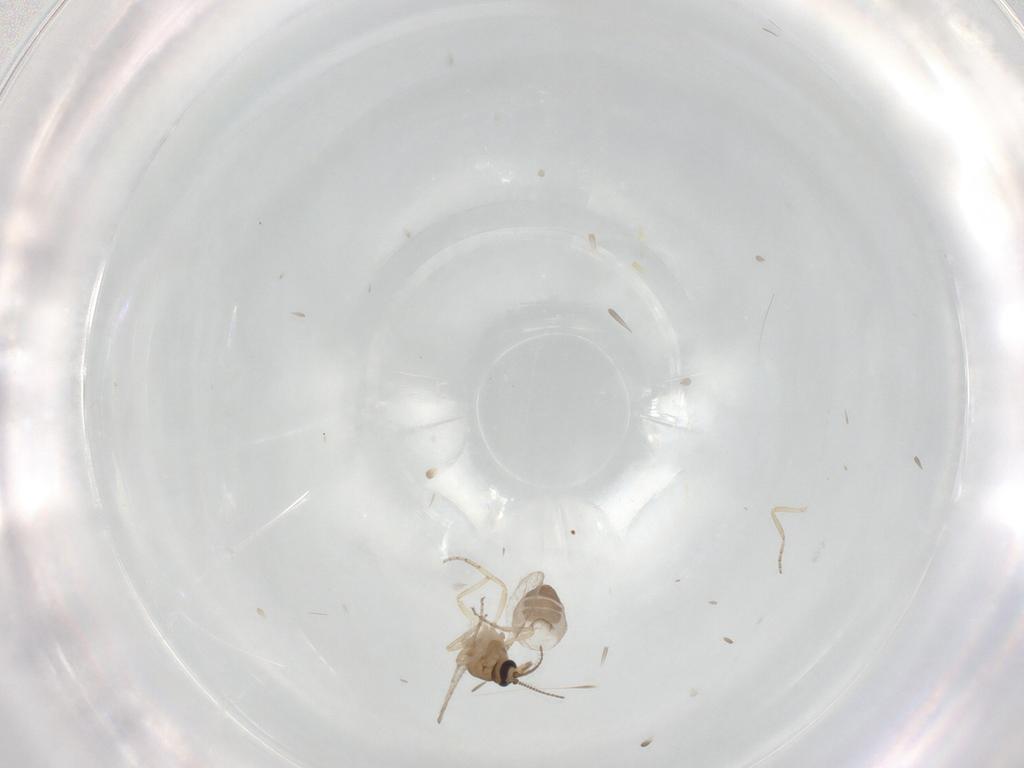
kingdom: Animalia
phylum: Arthropoda
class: Insecta
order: Diptera
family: Ceratopogonidae
